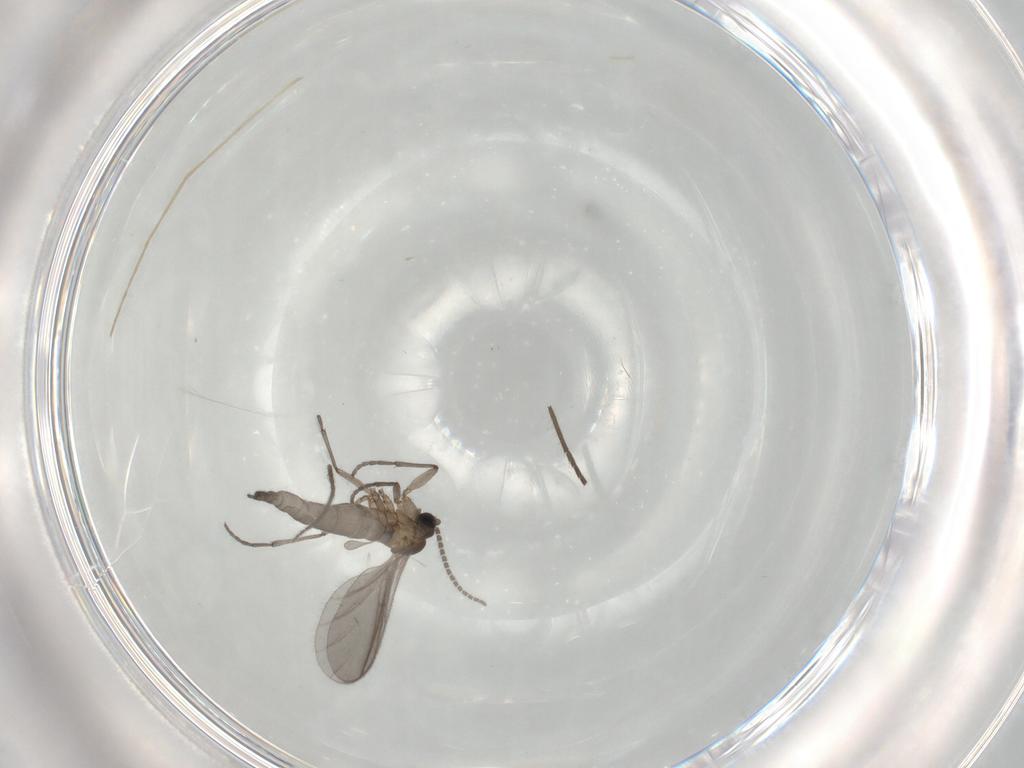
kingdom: Animalia
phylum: Arthropoda
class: Insecta
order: Diptera
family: Sciaridae
